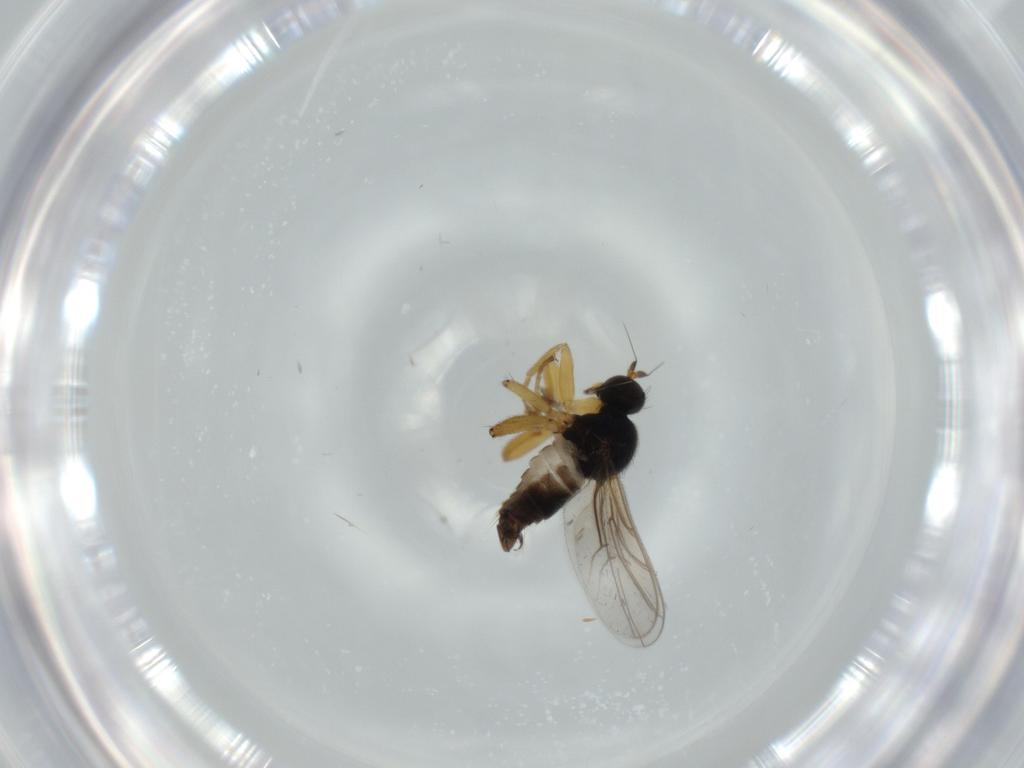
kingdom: Animalia
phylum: Arthropoda
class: Insecta
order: Diptera
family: Hybotidae
